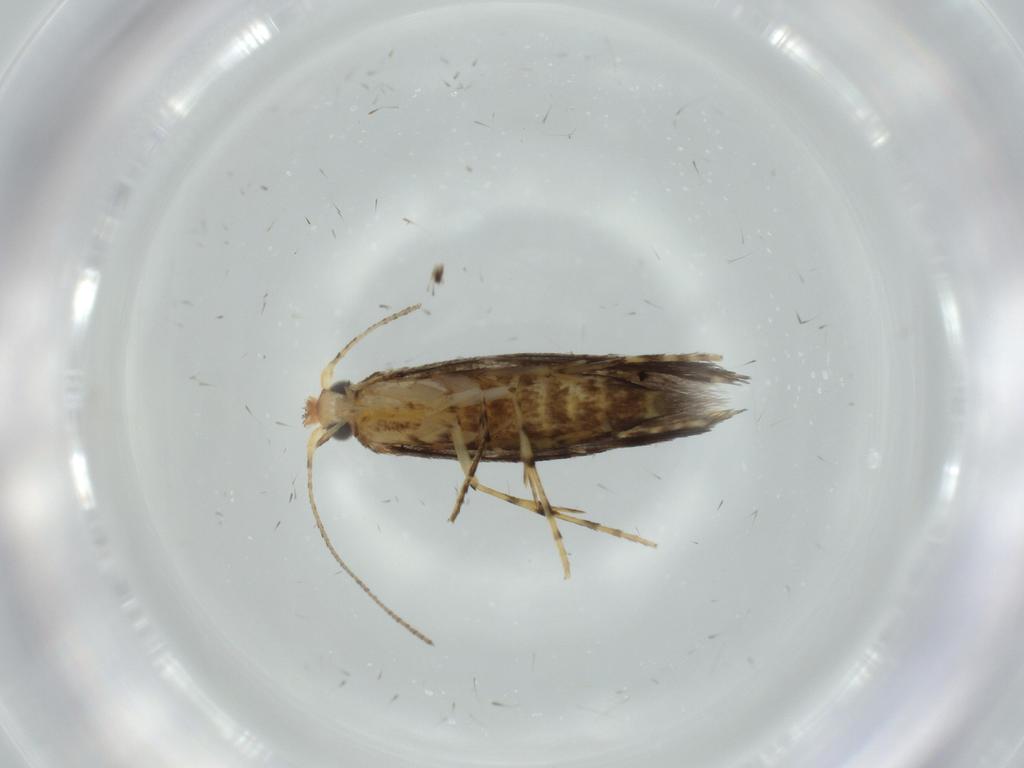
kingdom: Animalia
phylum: Arthropoda
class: Insecta
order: Lepidoptera
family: Argyresthiidae
